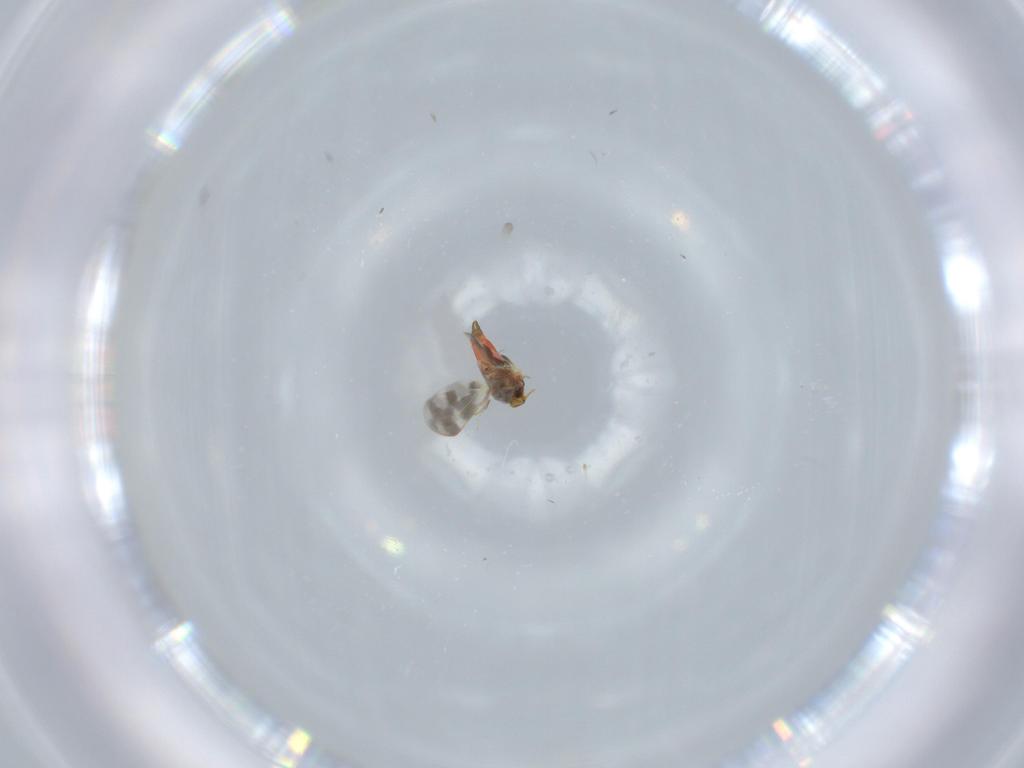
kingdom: Animalia
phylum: Arthropoda
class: Insecta
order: Hemiptera
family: Aleyrodidae
